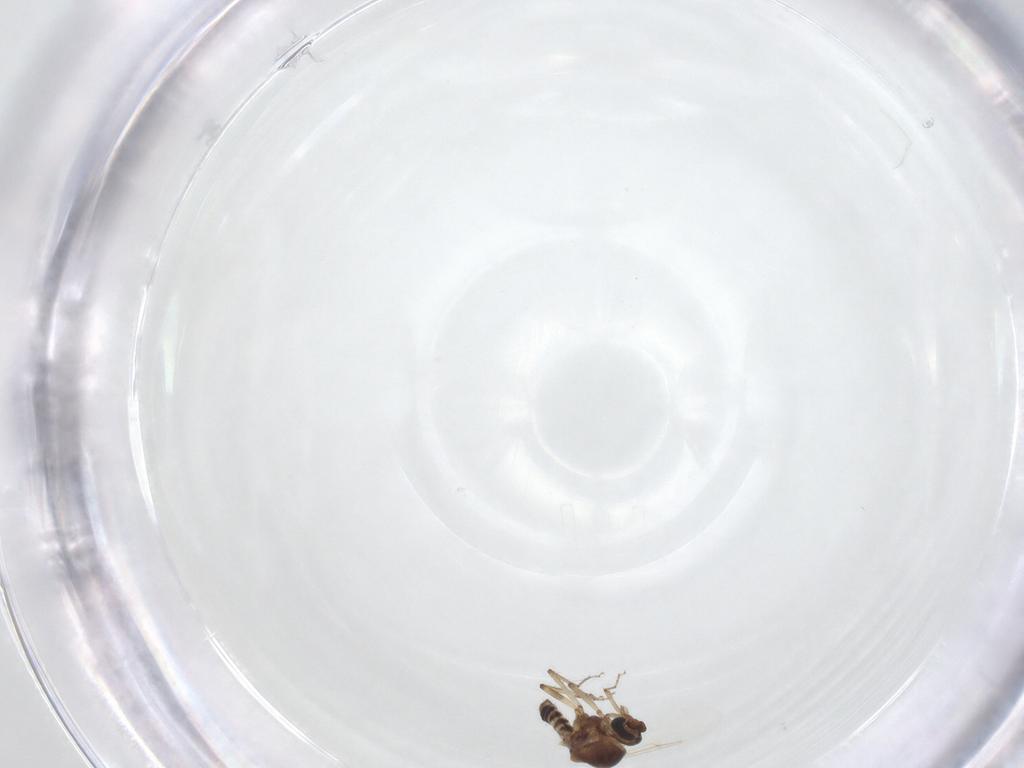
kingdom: Animalia
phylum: Arthropoda
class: Insecta
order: Diptera
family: Ceratopogonidae
